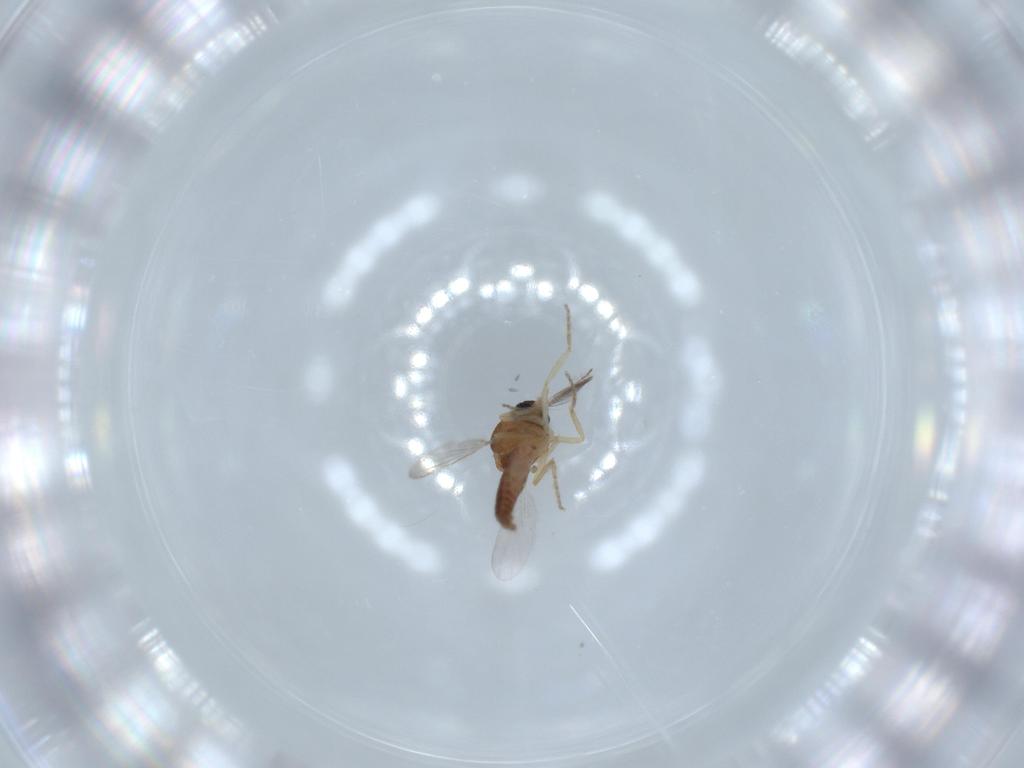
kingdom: Animalia
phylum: Arthropoda
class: Insecta
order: Diptera
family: Ceratopogonidae
